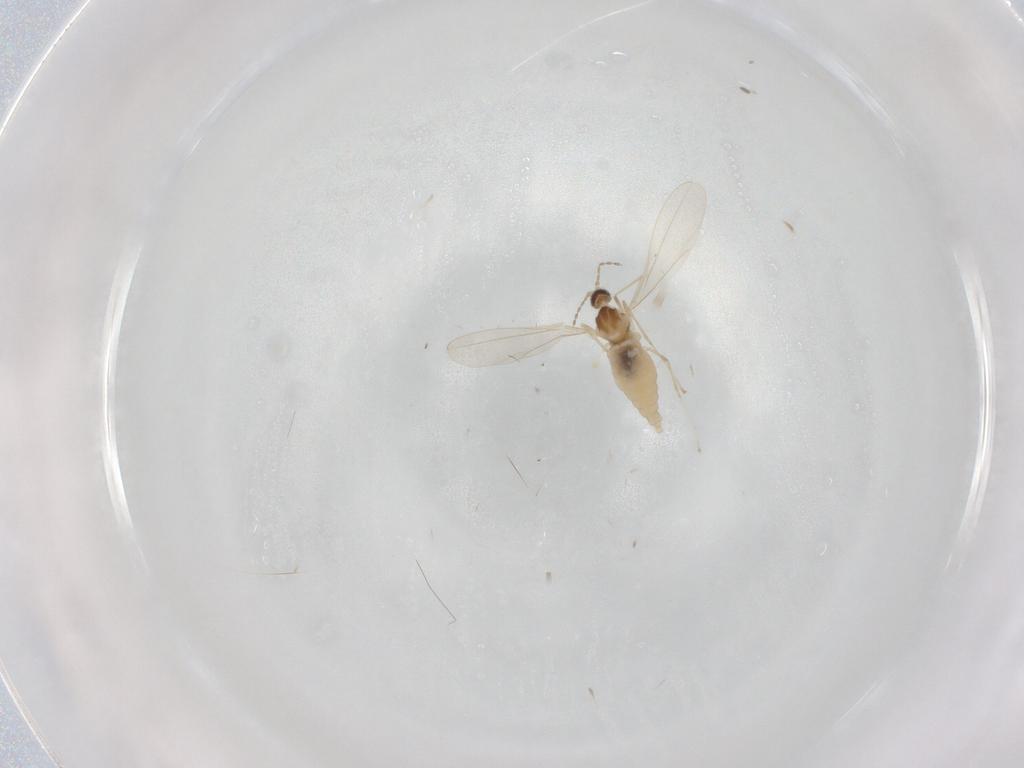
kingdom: Animalia
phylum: Arthropoda
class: Insecta
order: Diptera
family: Cecidomyiidae
